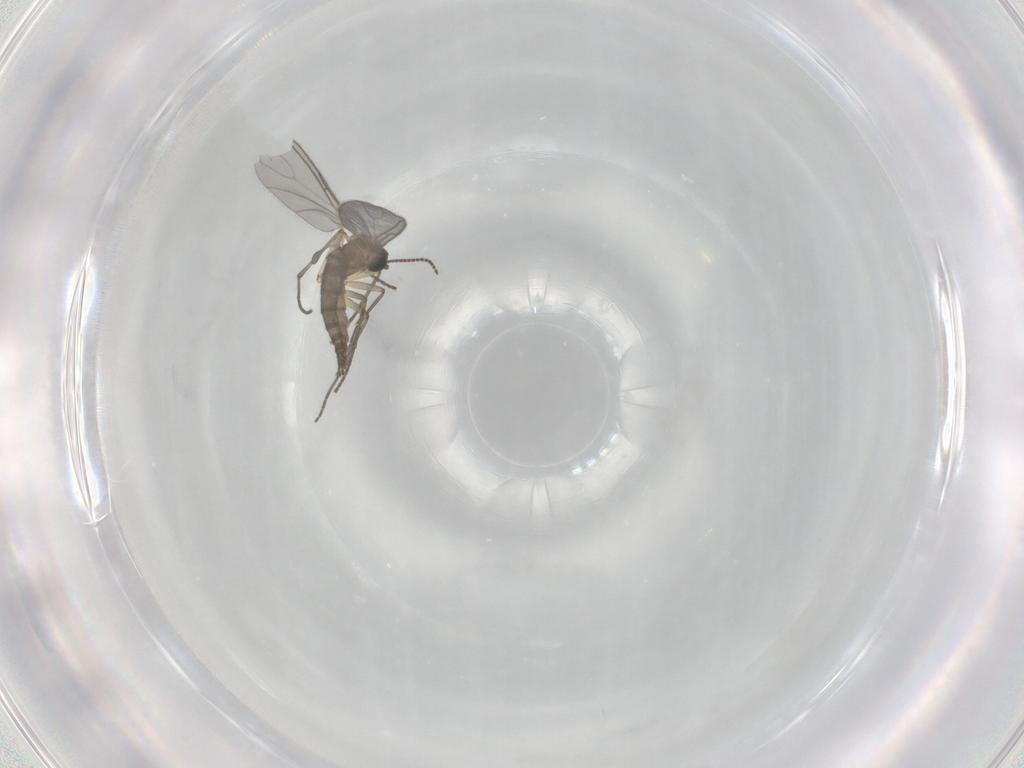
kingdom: Animalia
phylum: Arthropoda
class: Insecta
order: Diptera
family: Sciaridae
